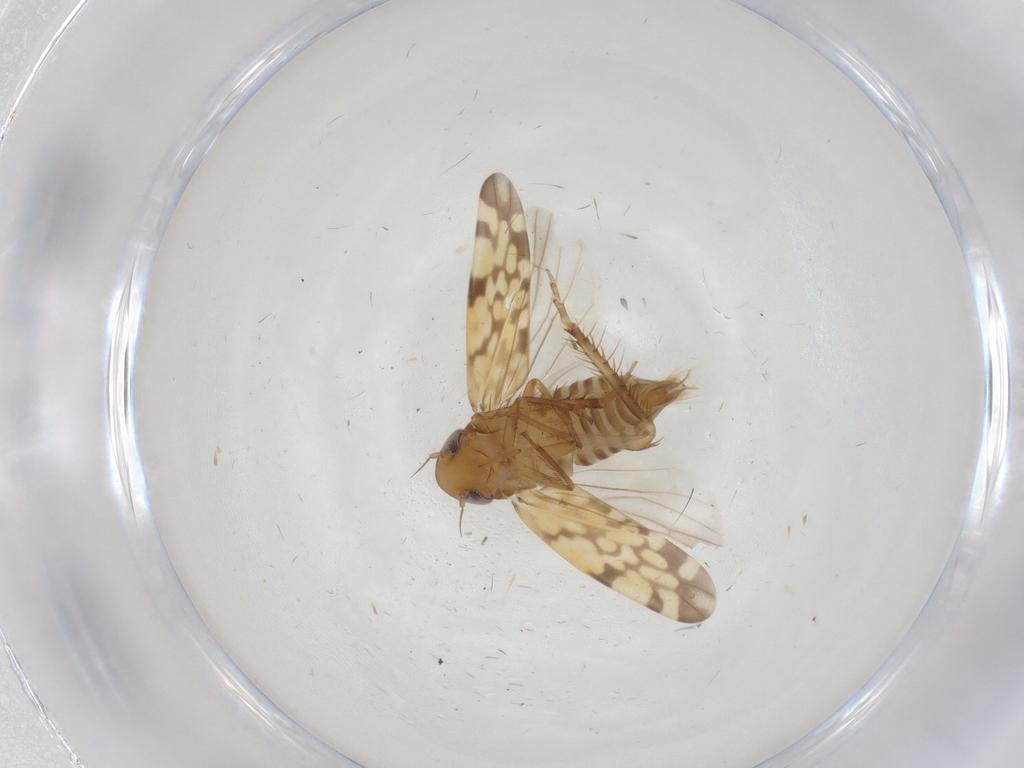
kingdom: Animalia
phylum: Arthropoda
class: Insecta
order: Hemiptera
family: Cicadellidae
